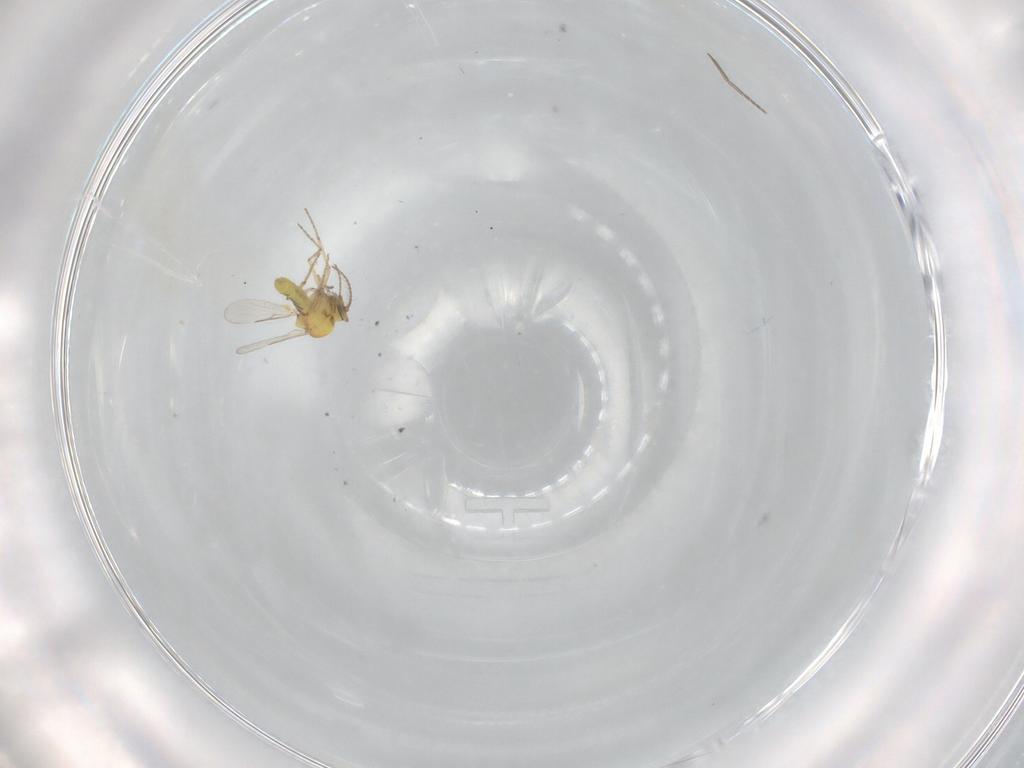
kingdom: Animalia
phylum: Arthropoda
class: Insecta
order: Diptera
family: Ceratopogonidae
